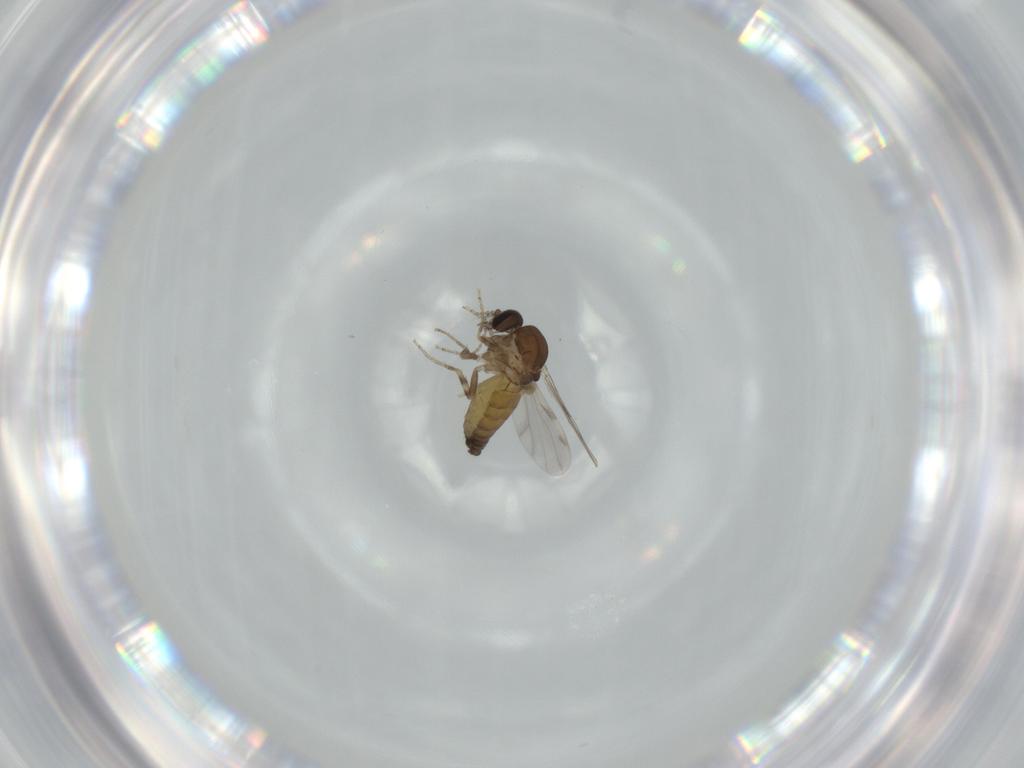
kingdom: Animalia
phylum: Arthropoda
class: Insecta
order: Diptera
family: Ceratopogonidae
